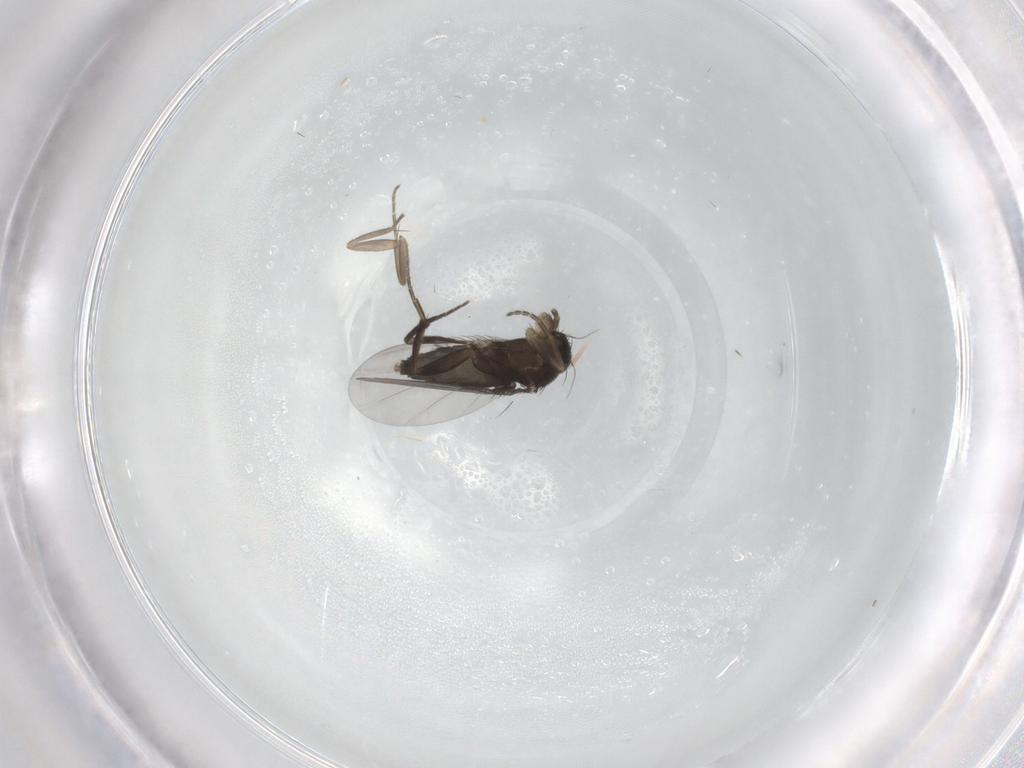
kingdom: Animalia
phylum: Arthropoda
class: Insecta
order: Diptera
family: Phoridae
